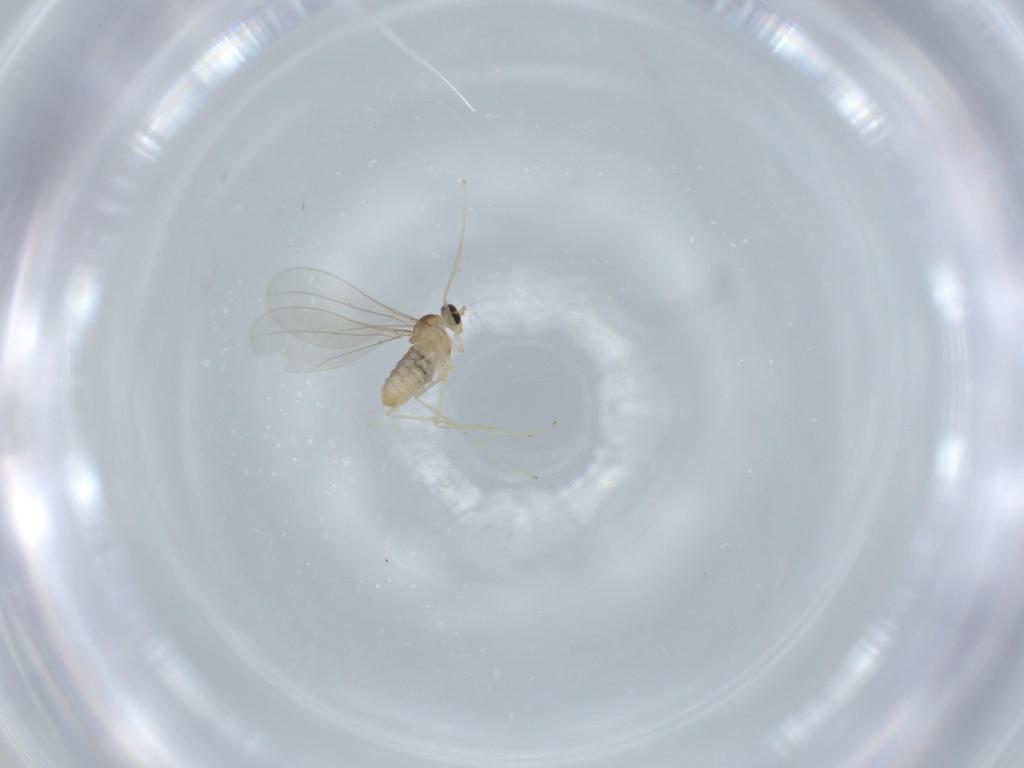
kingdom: Animalia
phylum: Arthropoda
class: Insecta
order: Diptera
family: Cecidomyiidae
